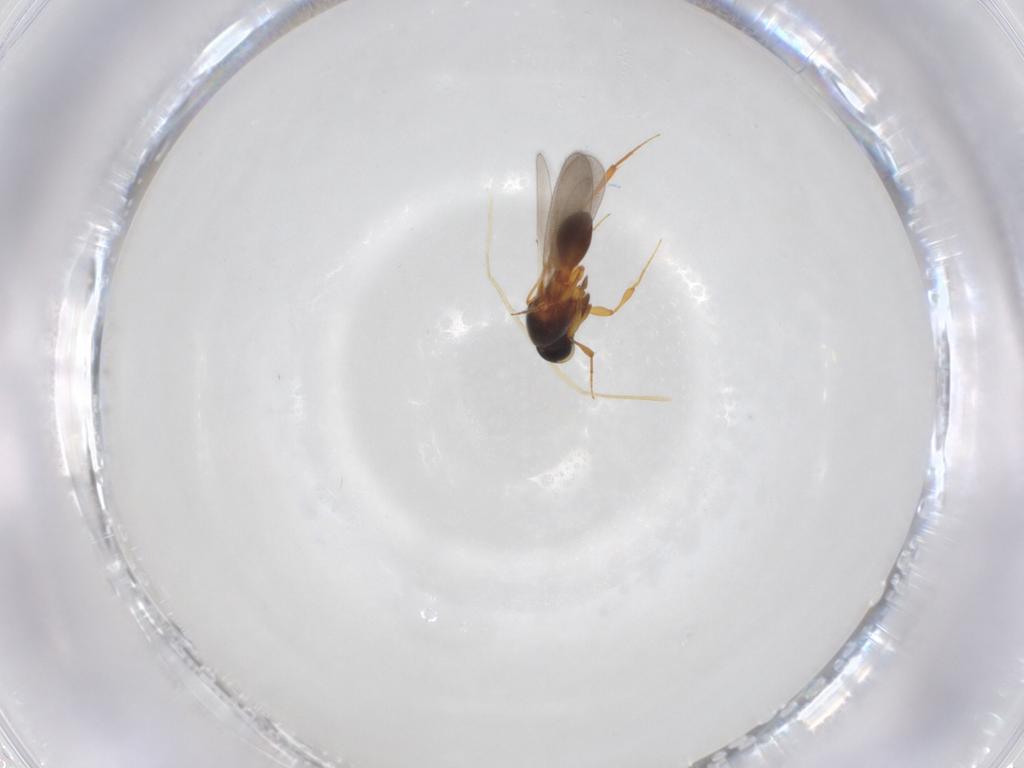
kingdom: Animalia
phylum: Arthropoda
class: Insecta
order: Hymenoptera
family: Platygastridae
